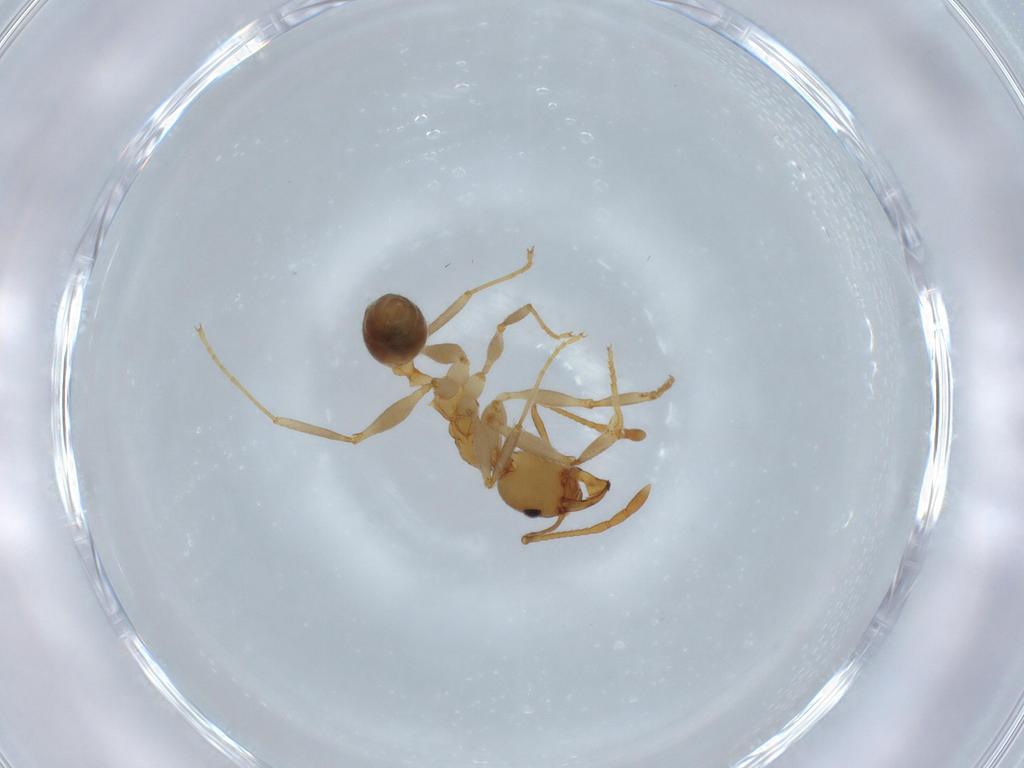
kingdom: Animalia
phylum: Arthropoda
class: Insecta
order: Hymenoptera
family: Formicidae
